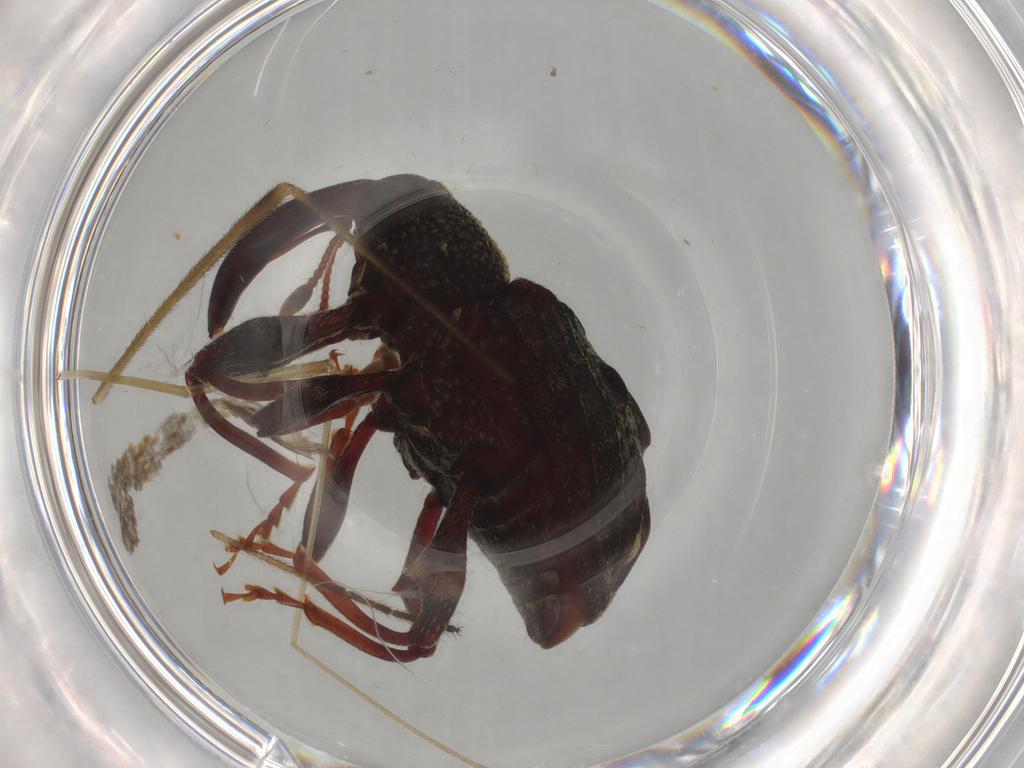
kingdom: Animalia
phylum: Arthropoda
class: Insecta
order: Coleoptera
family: Curculionidae
